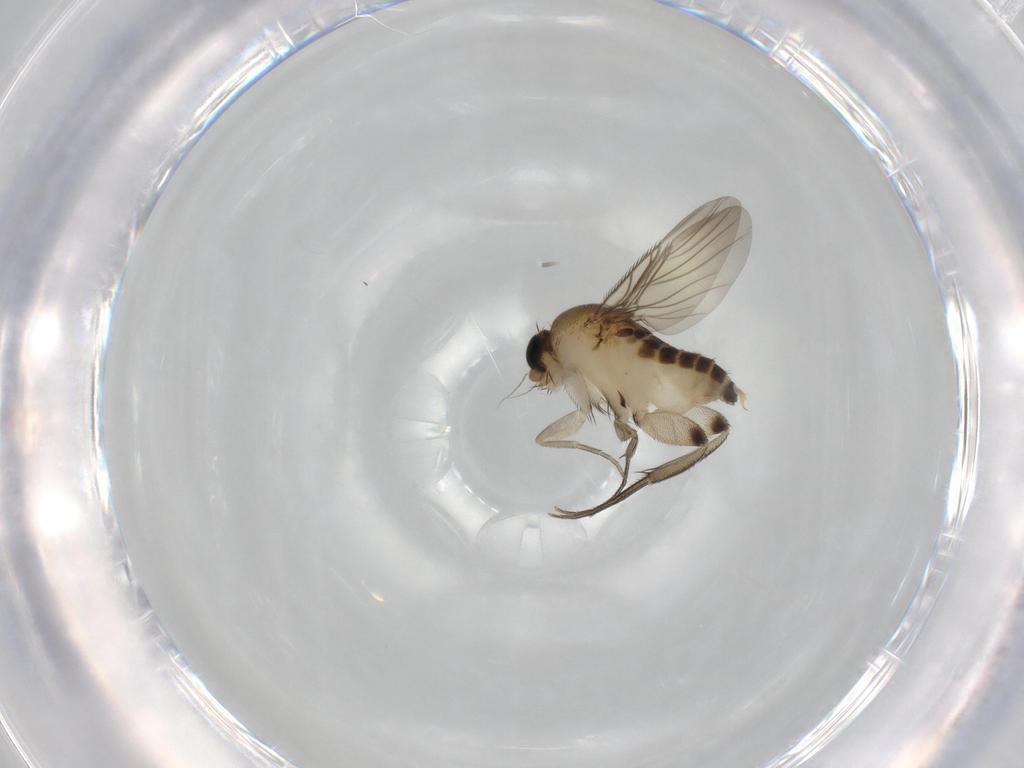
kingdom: Animalia
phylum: Arthropoda
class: Insecta
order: Diptera
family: Phoridae
